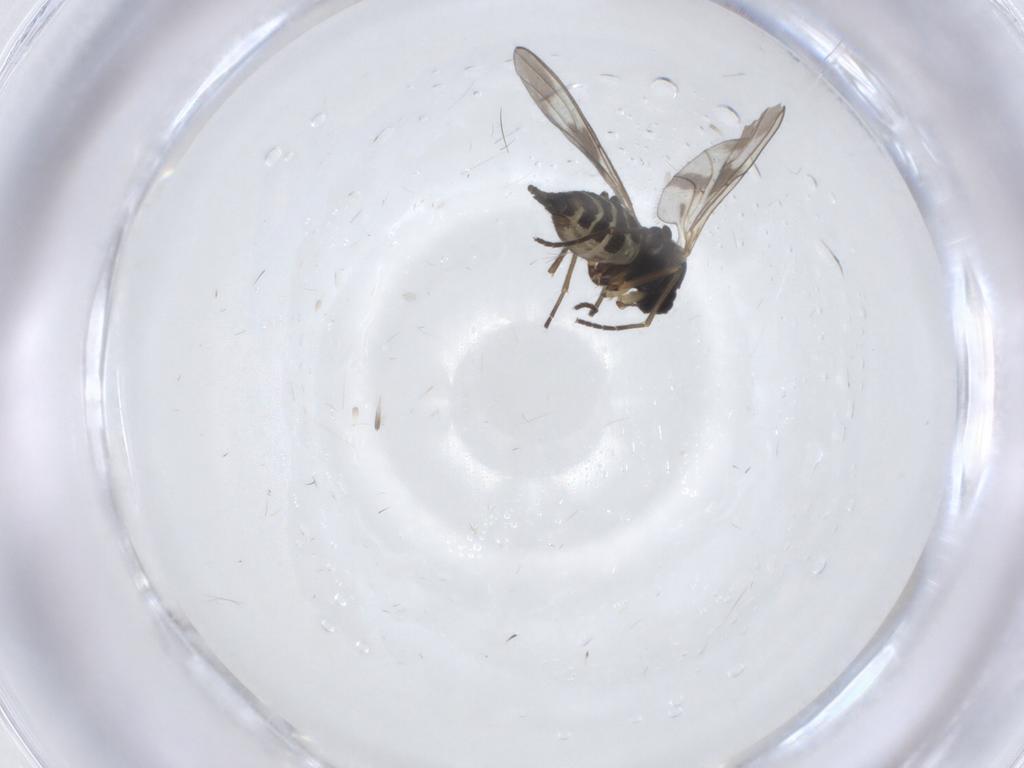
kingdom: Animalia
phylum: Arthropoda
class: Insecta
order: Diptera
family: Sciaridae
